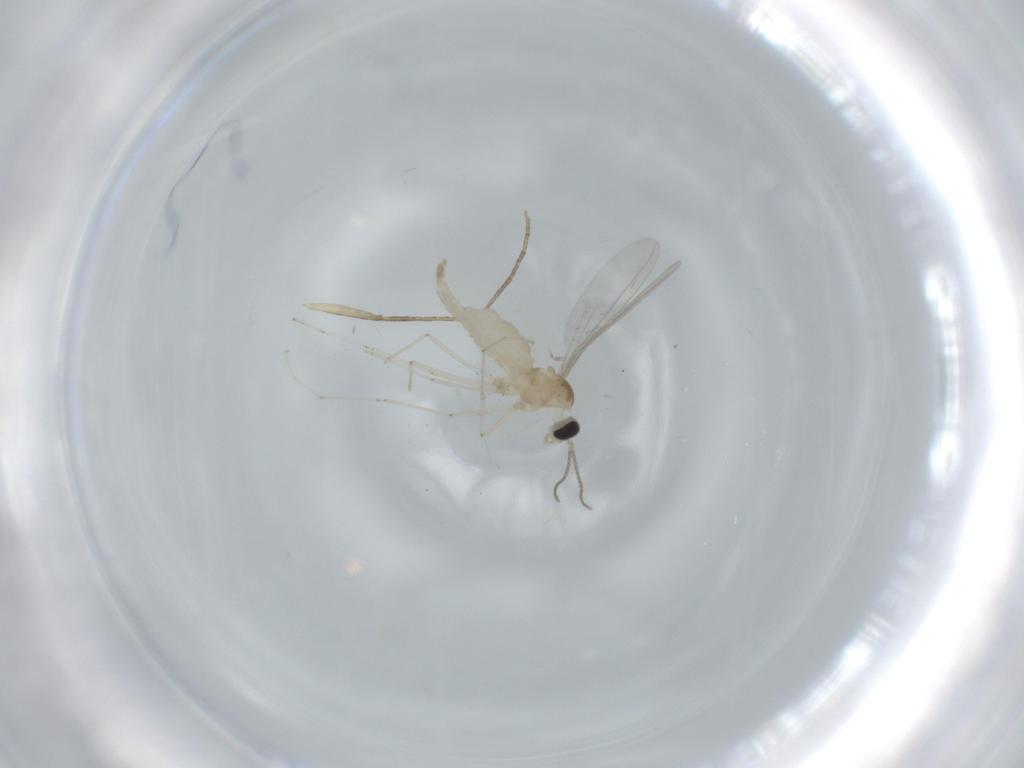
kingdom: Animalia
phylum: Arthropoda
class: Insecta
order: Diptera
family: Cecidomyiidae
